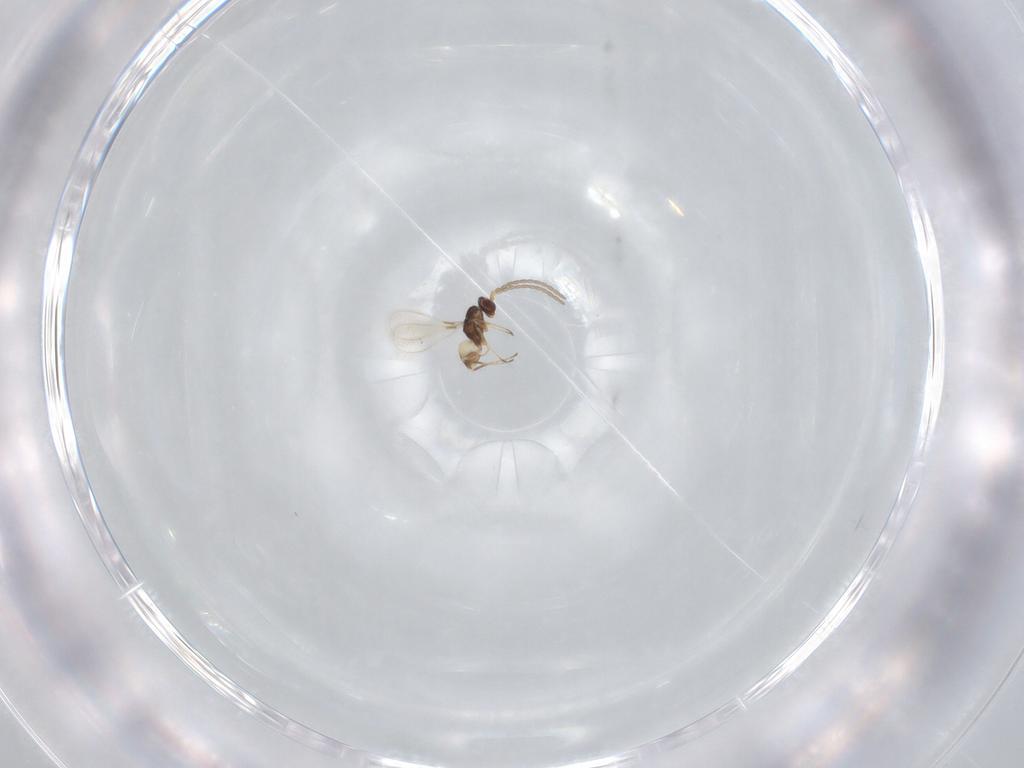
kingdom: Animalia
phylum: Arthropoda
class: Insecta
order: Hymenoptera
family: Mymaridae
